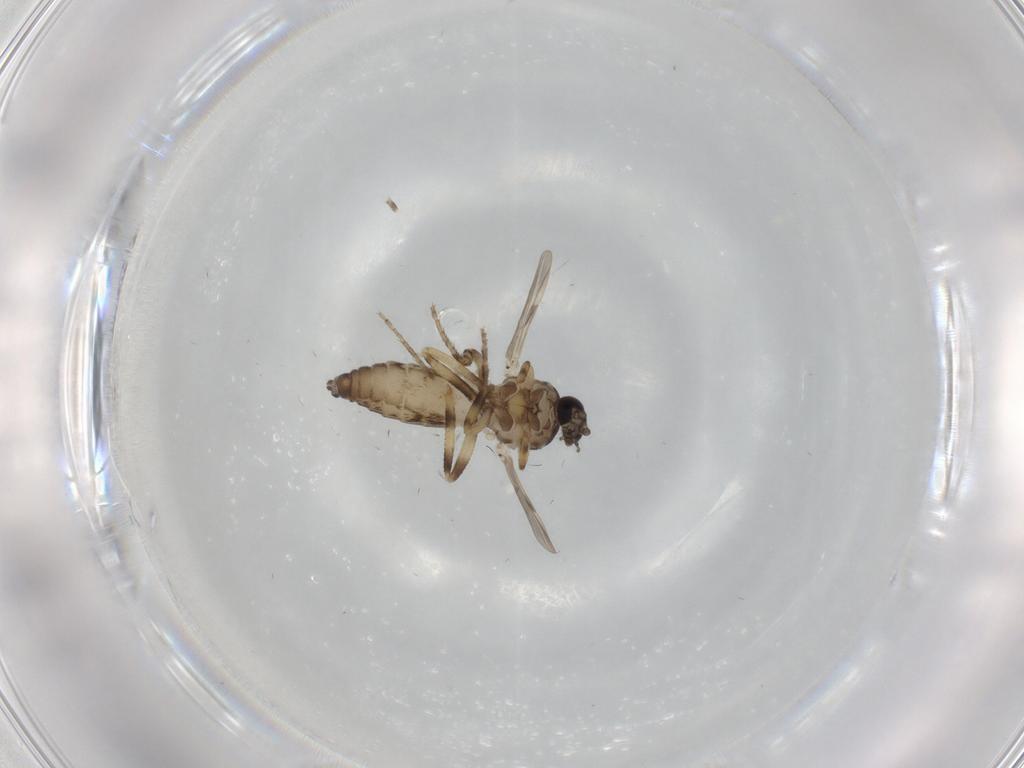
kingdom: Animalia
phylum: Arthropoda
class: Insecta
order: Diptera
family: Ceratopogonidae
